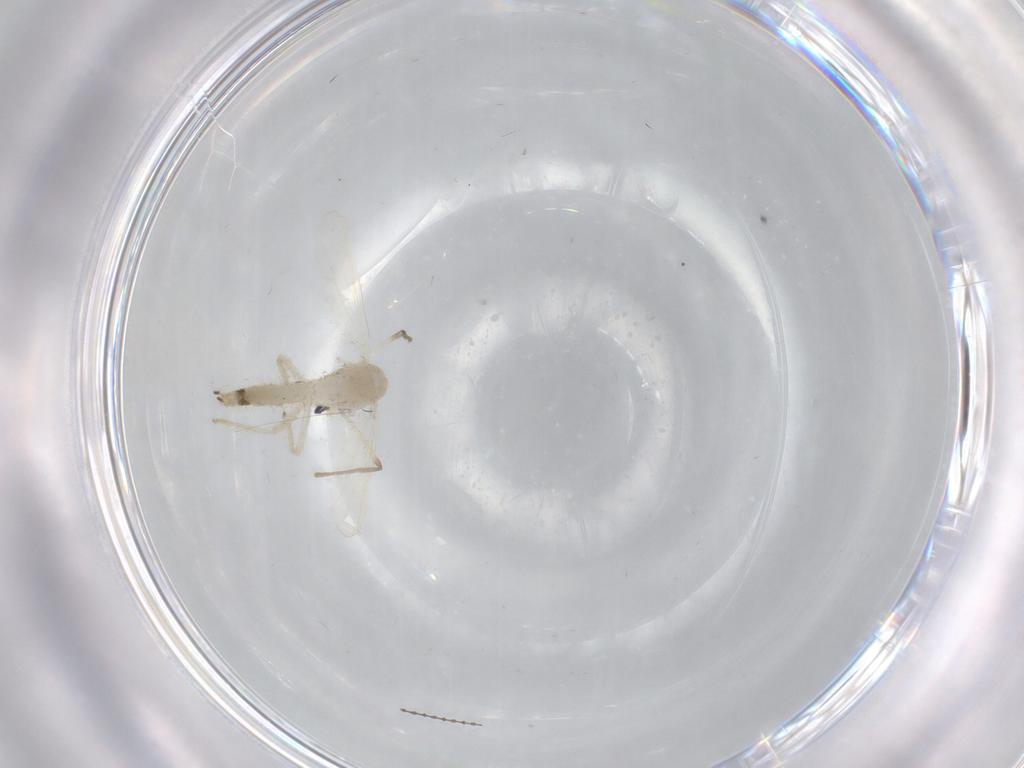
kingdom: Animalia
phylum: Arthropoda
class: Insecta
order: Diptera
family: Chironomidae
